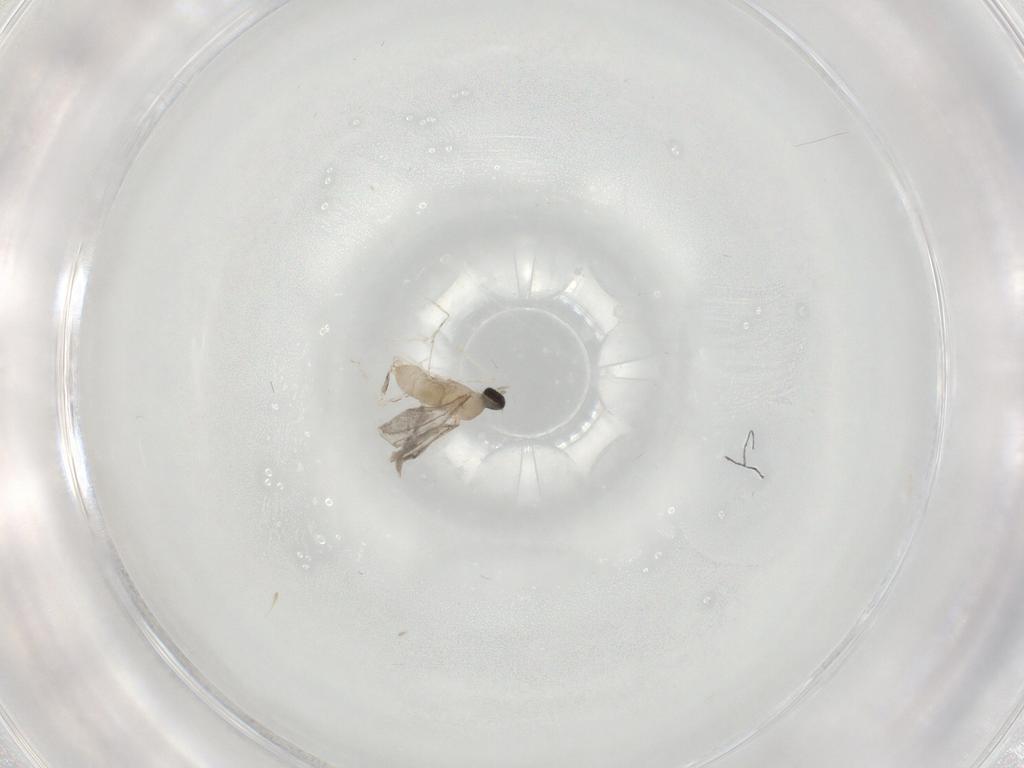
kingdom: Animalia
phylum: Arthropoda
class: Insecta
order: Diptera
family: Cecidomyiidae
